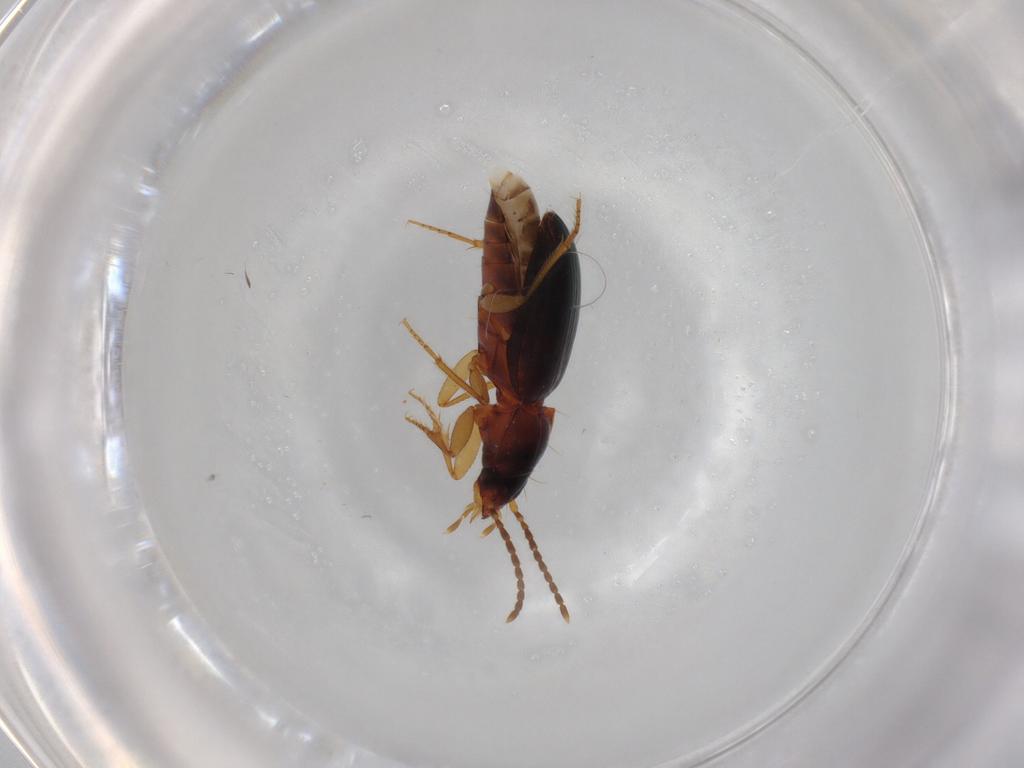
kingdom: Animalia
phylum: Arthropoda
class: Insecta
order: Coleoptera
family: Carabidae
